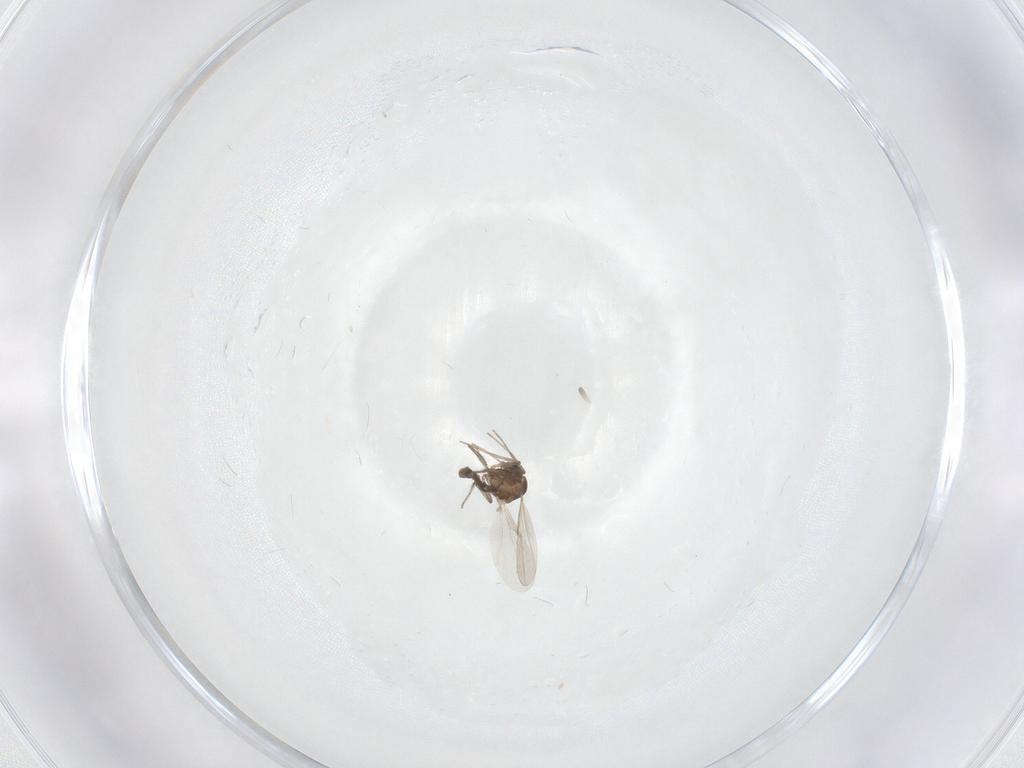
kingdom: Animalia
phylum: Arthropoda
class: Insecta
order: Diptera
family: Ceratopogonidae
